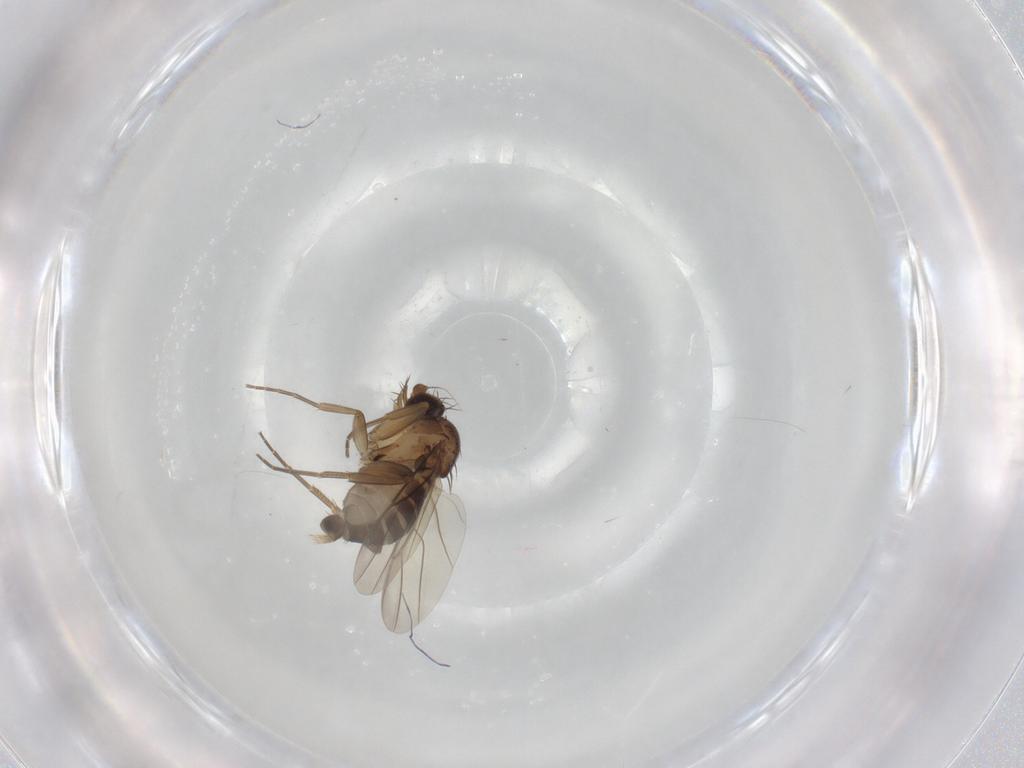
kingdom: Animalia
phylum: Arthropoda
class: Insecta
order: Diptera
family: Phoridae
